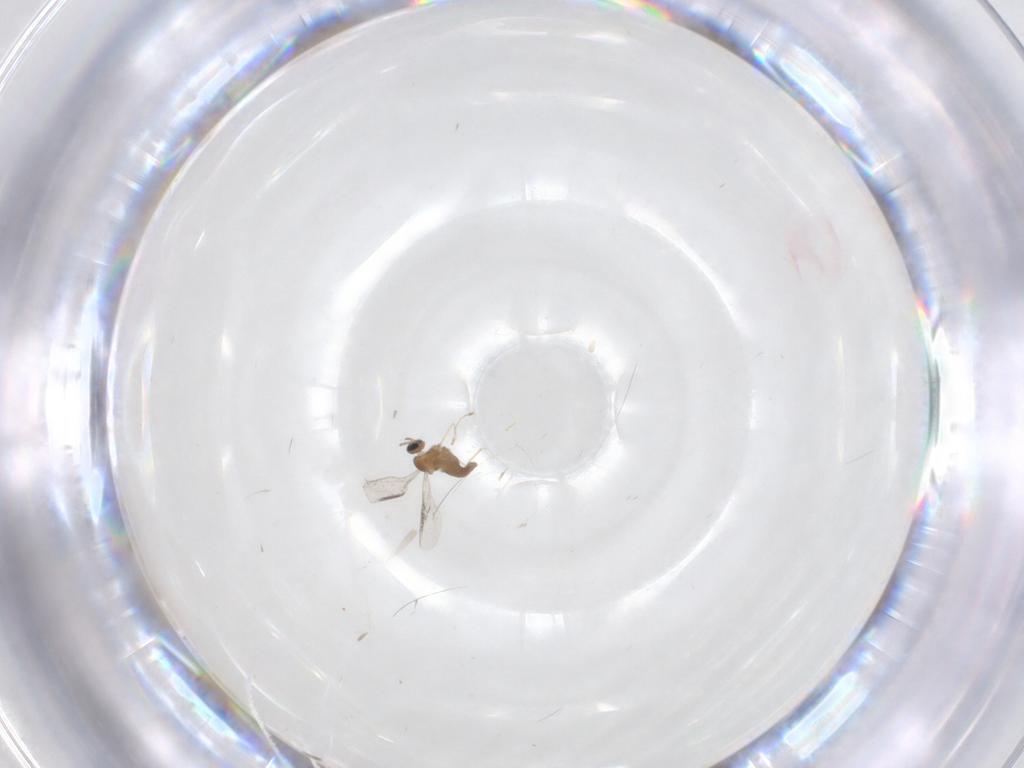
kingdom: Animalia
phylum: Arthropoda
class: Insecta
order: Diptera
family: Cecidomyiidae
